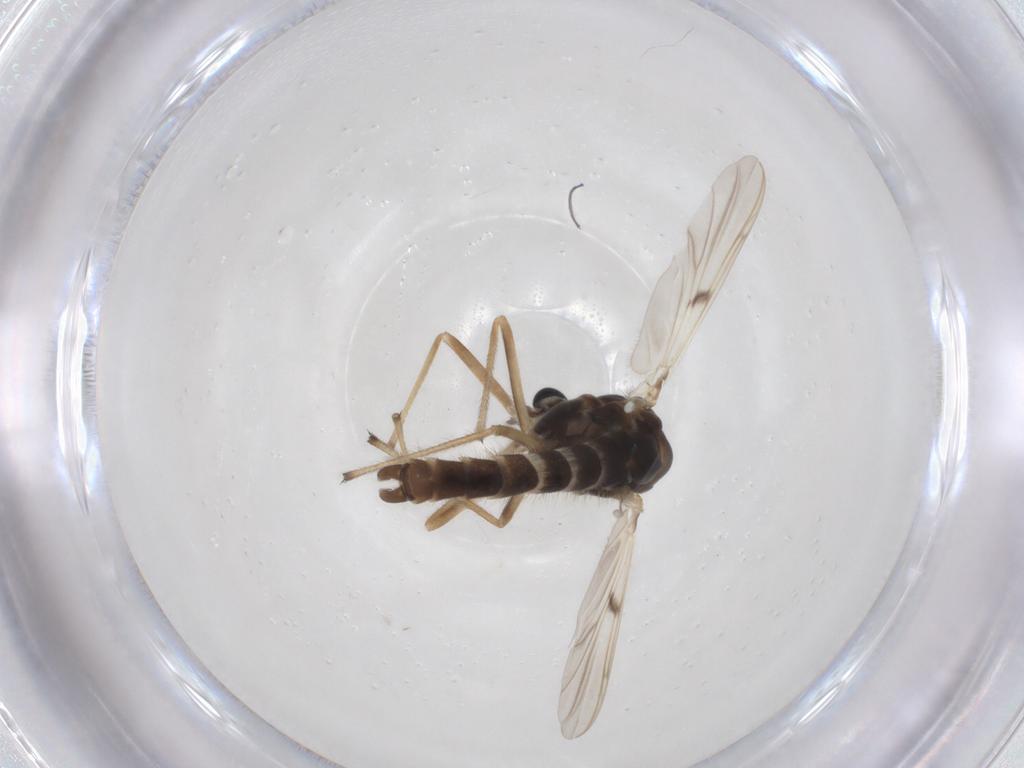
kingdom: Animalia
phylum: Arthropoda
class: Insecta
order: Diptera
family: Chironomidae
